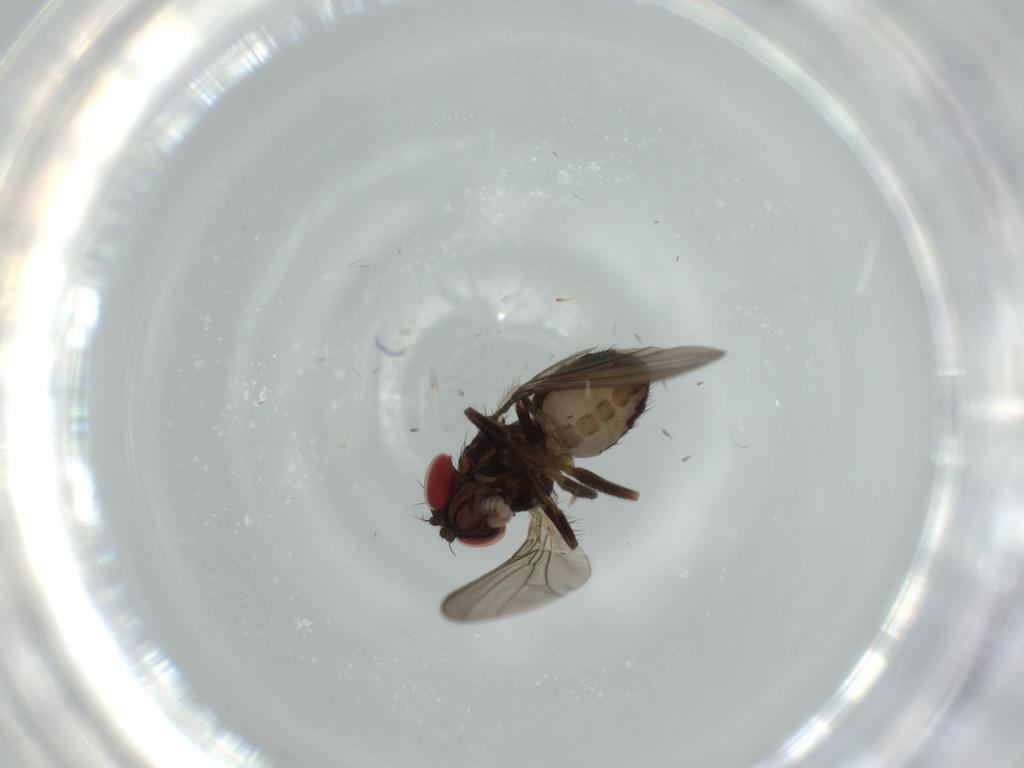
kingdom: Animalia
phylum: Arthropoda
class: Insecta
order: Diptera
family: Drosophilidae
